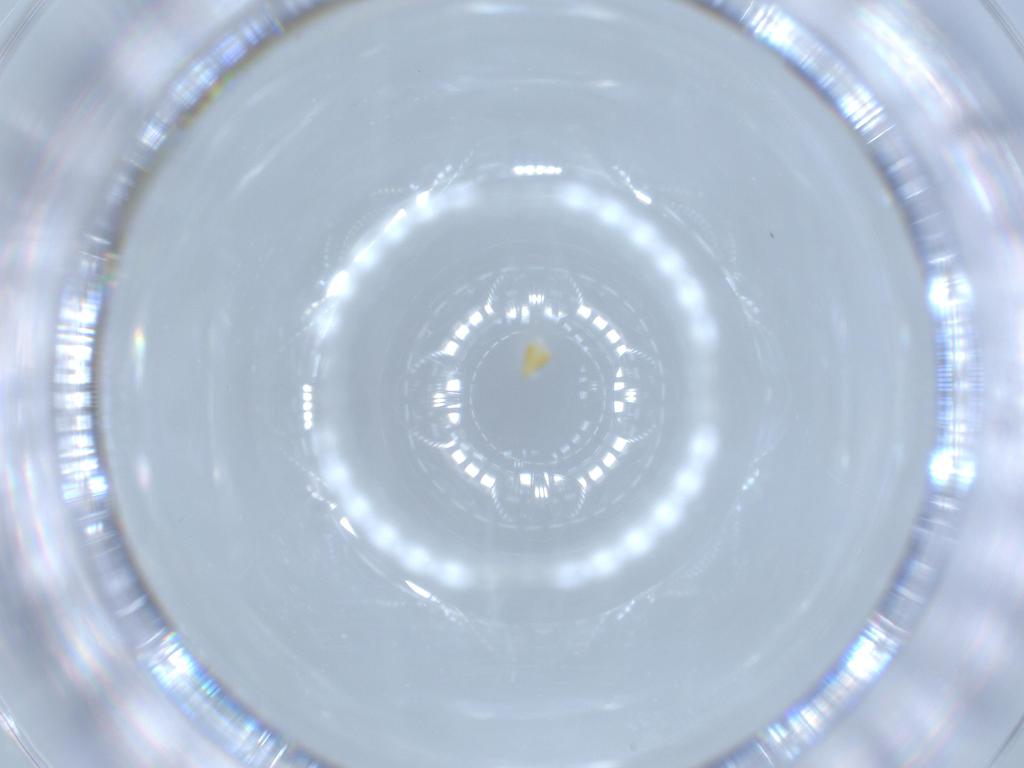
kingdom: Animalia
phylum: Arthropoda
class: Insecta
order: Thysanoptera
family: Thripidae
